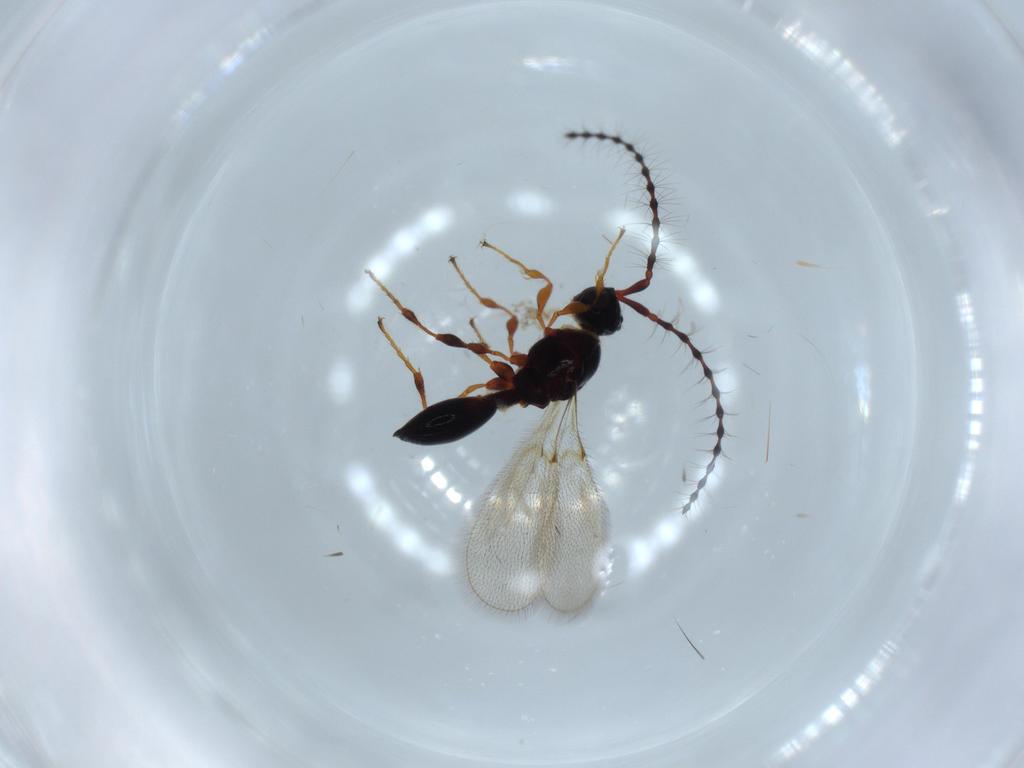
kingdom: Animalia
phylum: Arthropoda
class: Insecta
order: Hymenoptera
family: Diapriidae
